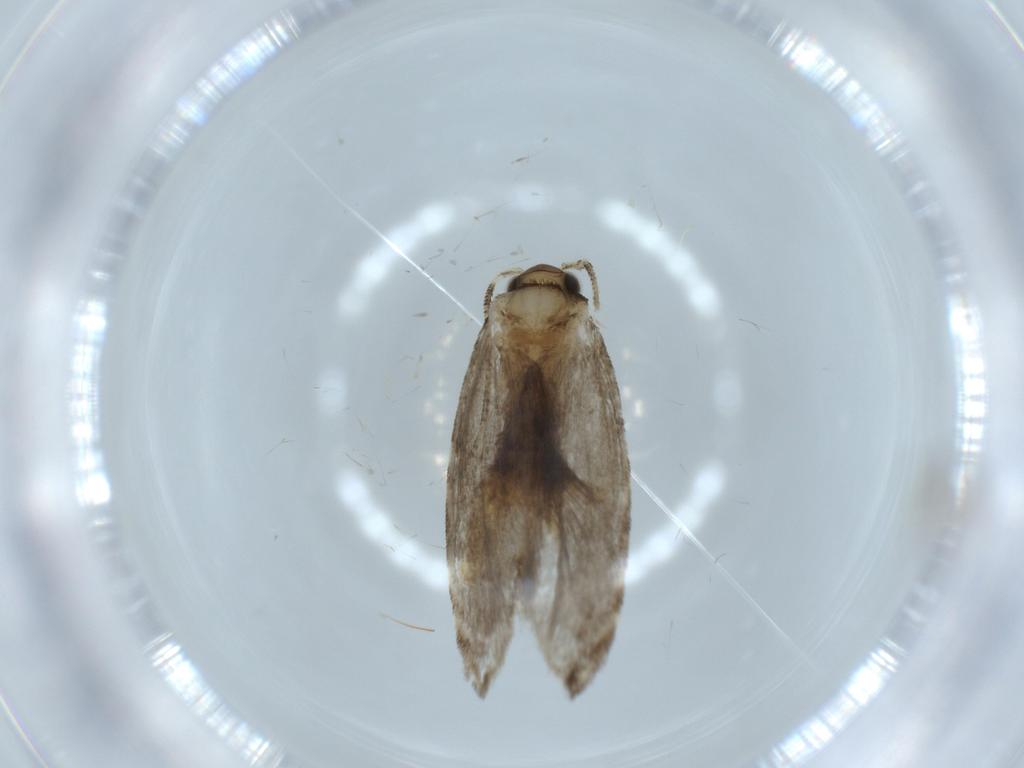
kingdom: Animalia
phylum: Arthropoda
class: Insecta
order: Lepidoptera
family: Tineidae
